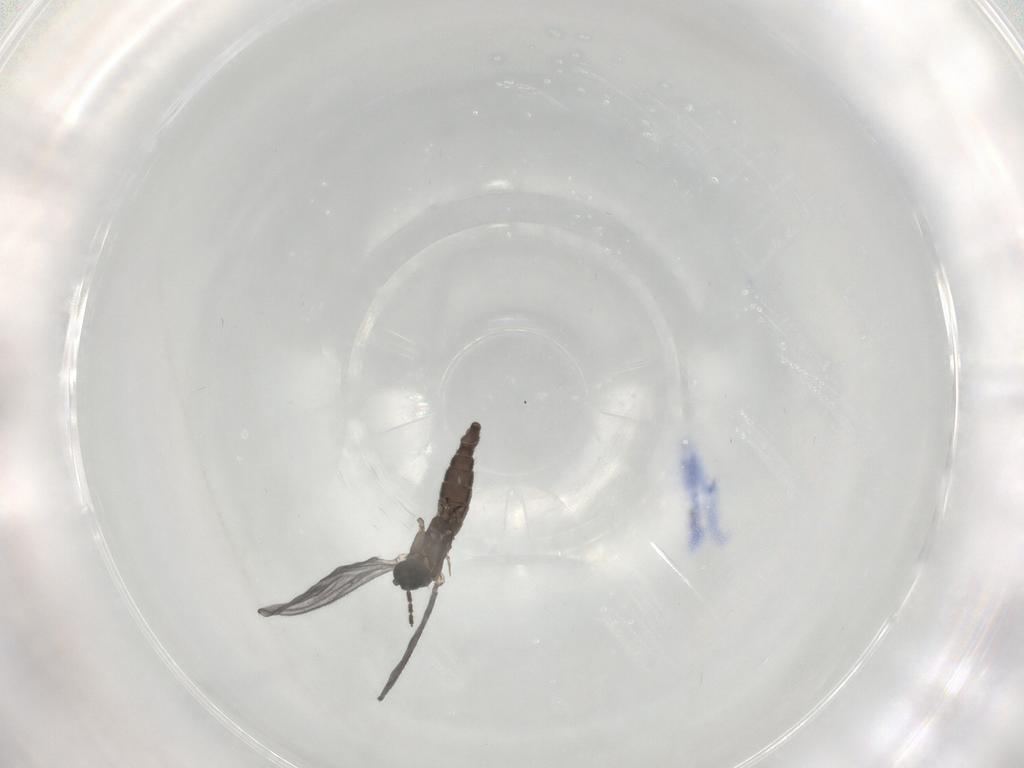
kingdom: Animalia
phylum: Arthropoda
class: Insecta
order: Diptera
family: Sciaridae
